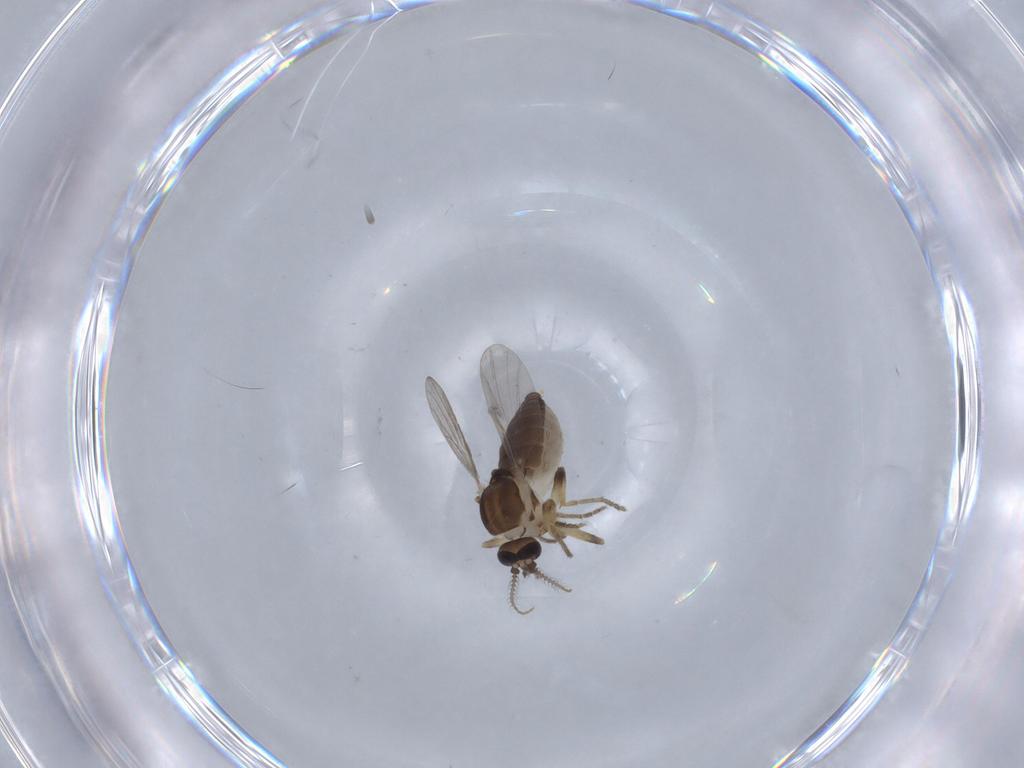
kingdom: Animalia
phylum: Arthropoda
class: Insecta
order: Diptera
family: Ceratopogonidae
